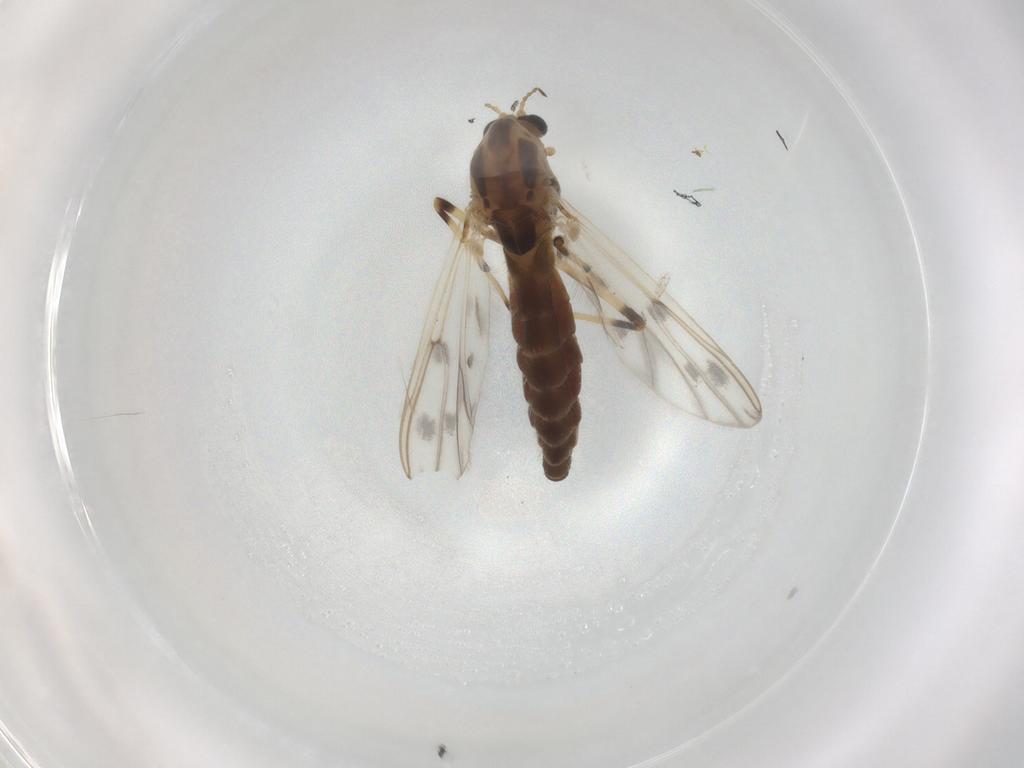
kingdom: Animalia
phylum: Arthropoda
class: Insecta
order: Diptera
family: Chironomidae
